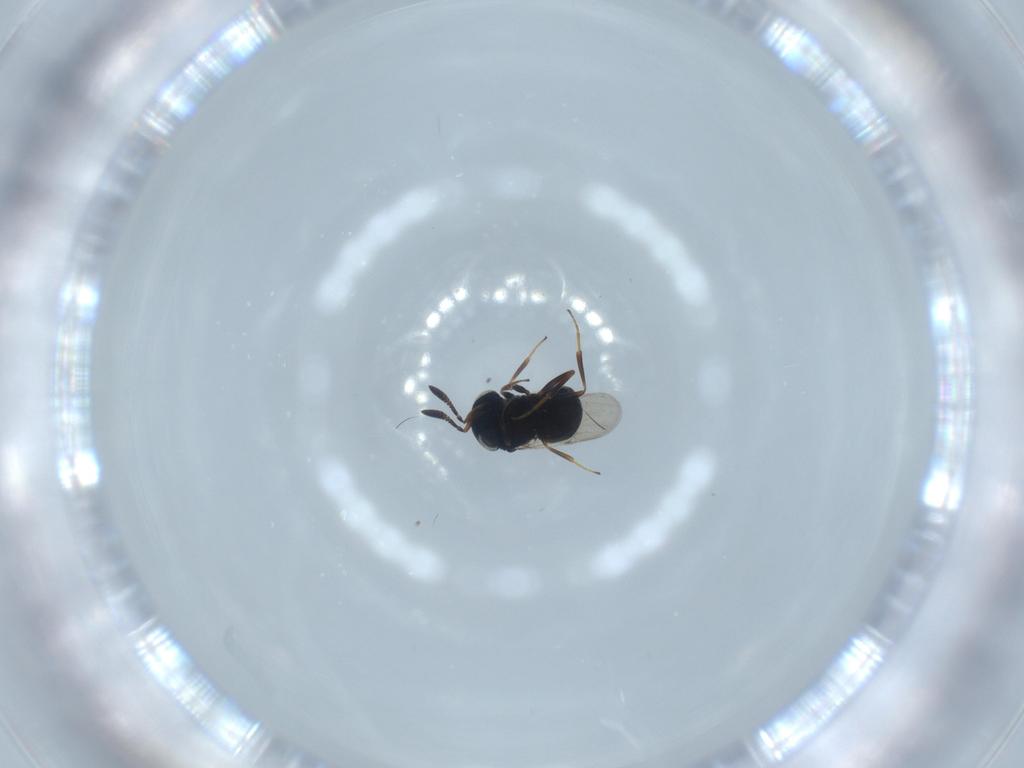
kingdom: Animalia
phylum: Arthropoda
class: Insecta
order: Hymenoptera
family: Scelionidae
